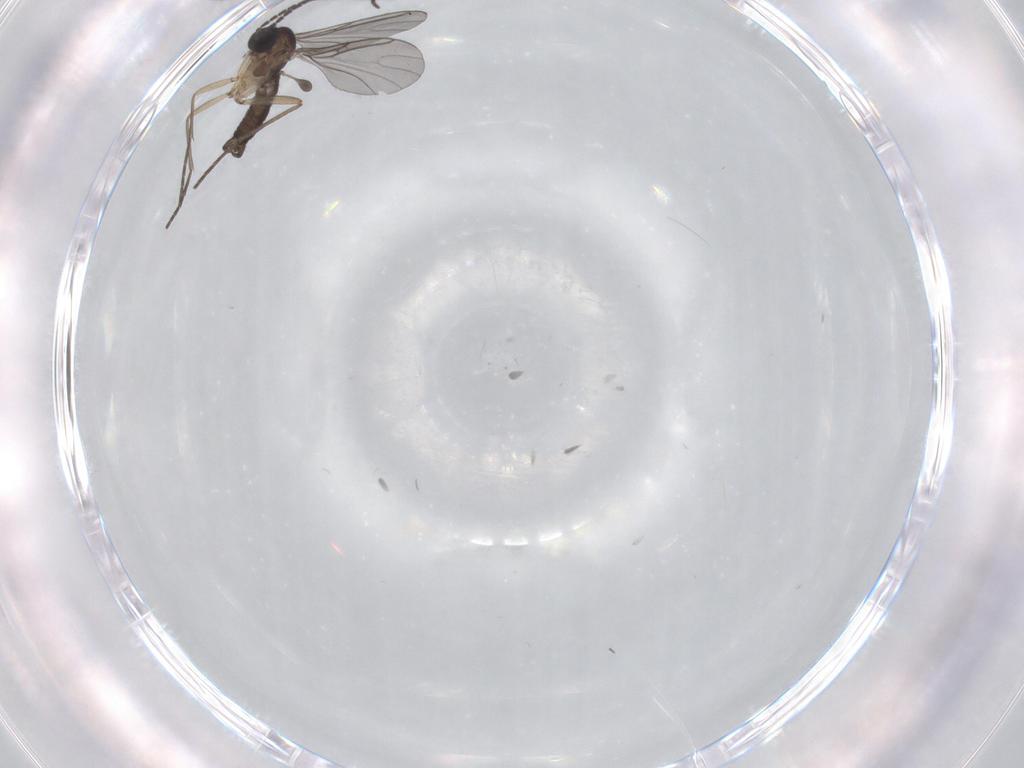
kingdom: Animalia
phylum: Arthropoda
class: Insecta
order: Diptera
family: Sciaridae
